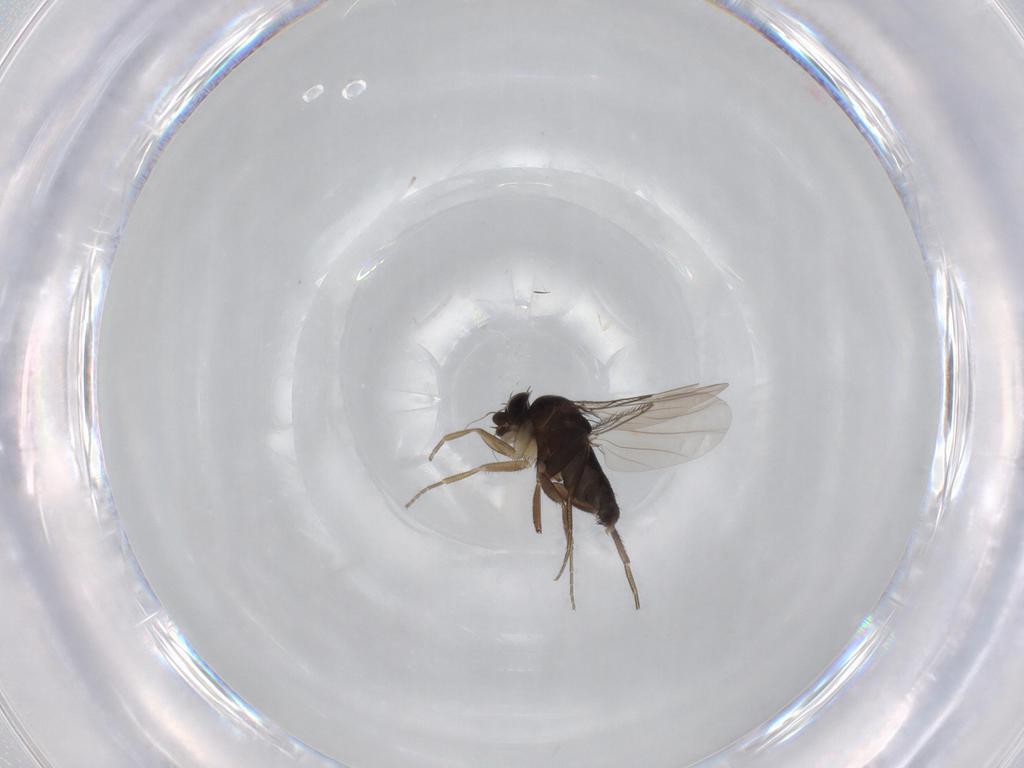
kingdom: Animalia
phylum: Arthropoda
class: Insecta
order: Diptera
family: Phoridae
